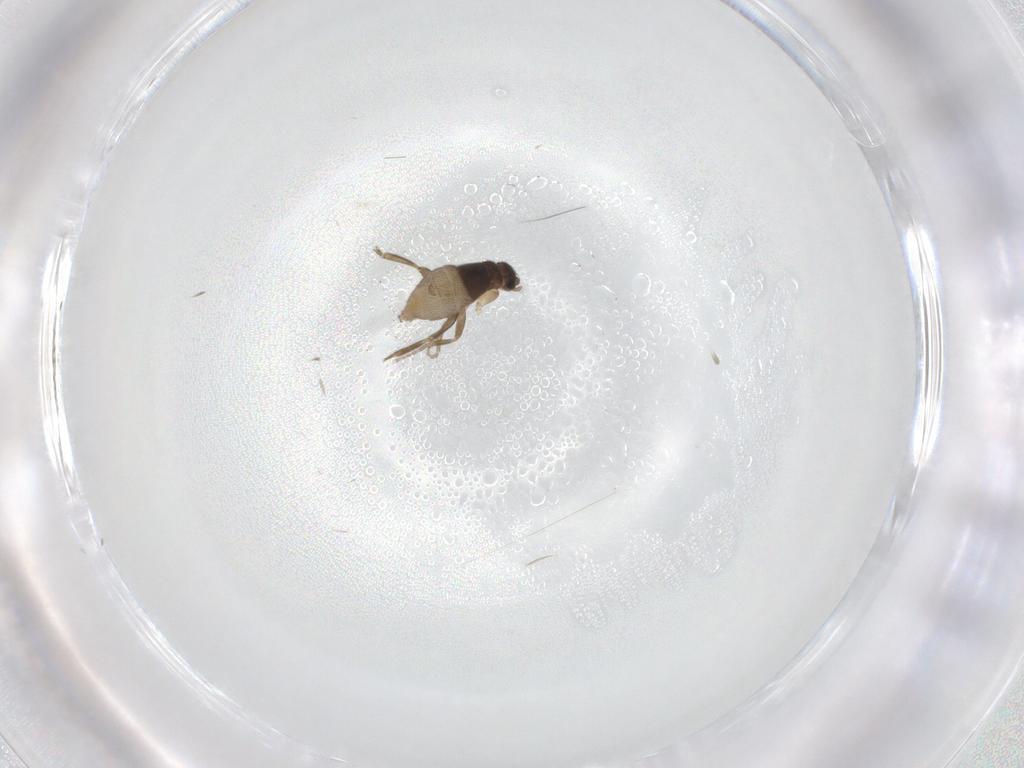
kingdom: Animalia
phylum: Arthropoda
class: Insecta
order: Diptera
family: Phoridae
